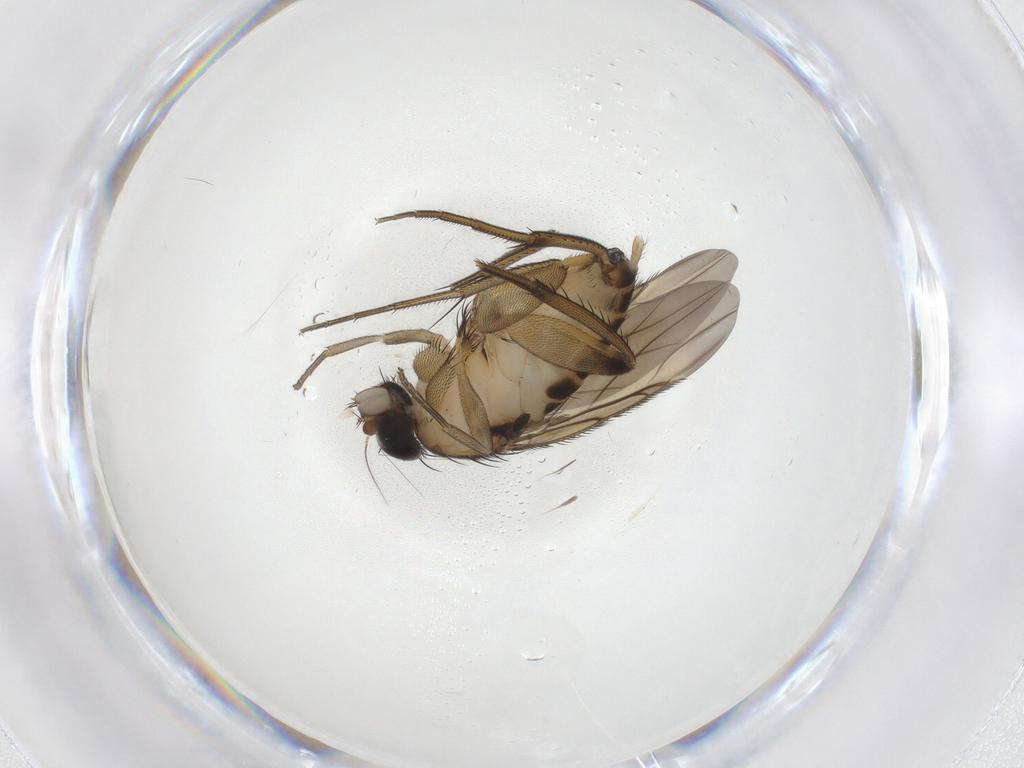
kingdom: Animalia
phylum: Arthropoda
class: Insecta
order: Diptera
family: Phoridae
